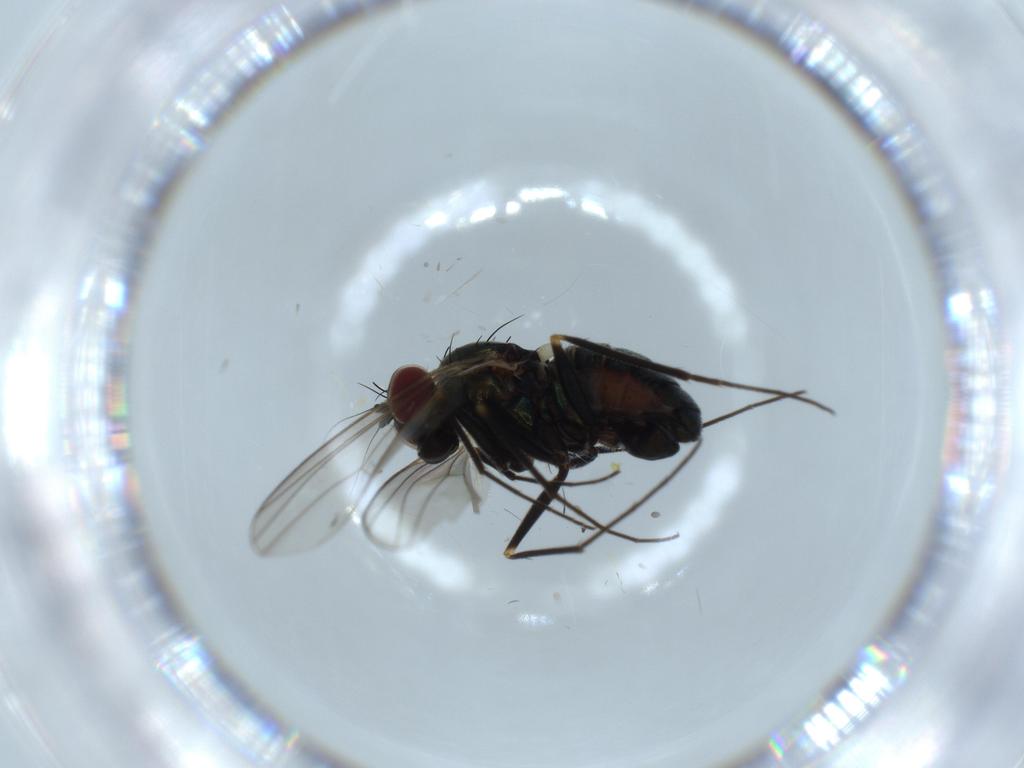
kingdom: Animalia
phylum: Arthropoda
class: Insecta
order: Diptera
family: Dolichopodidae
